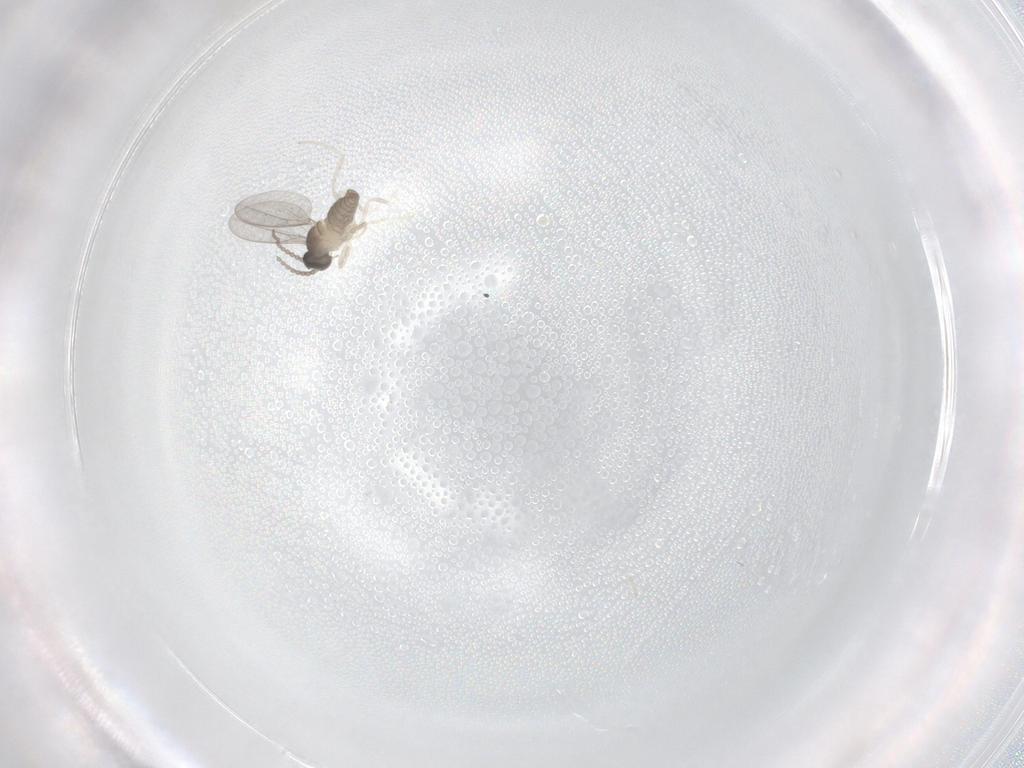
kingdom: Animalia
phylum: Arthropoda
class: Insecta
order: Diptera
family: Cecidomyiidae
